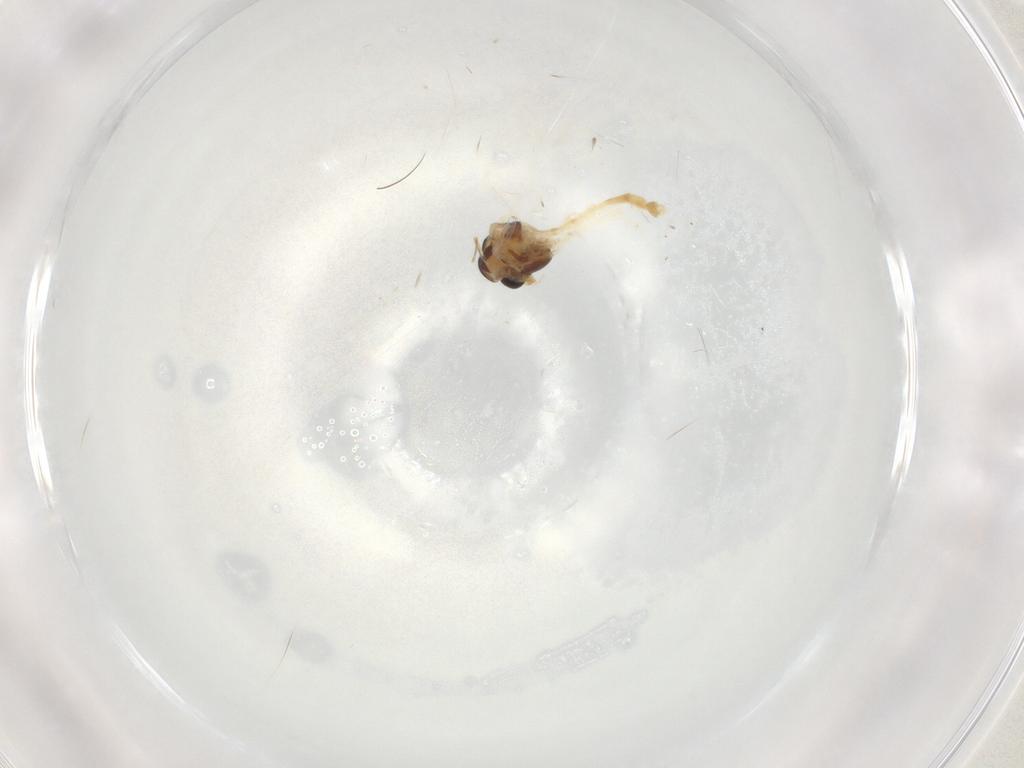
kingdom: Animalia
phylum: Arthropoda
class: Insecta
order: Diptera
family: Chironomidae
